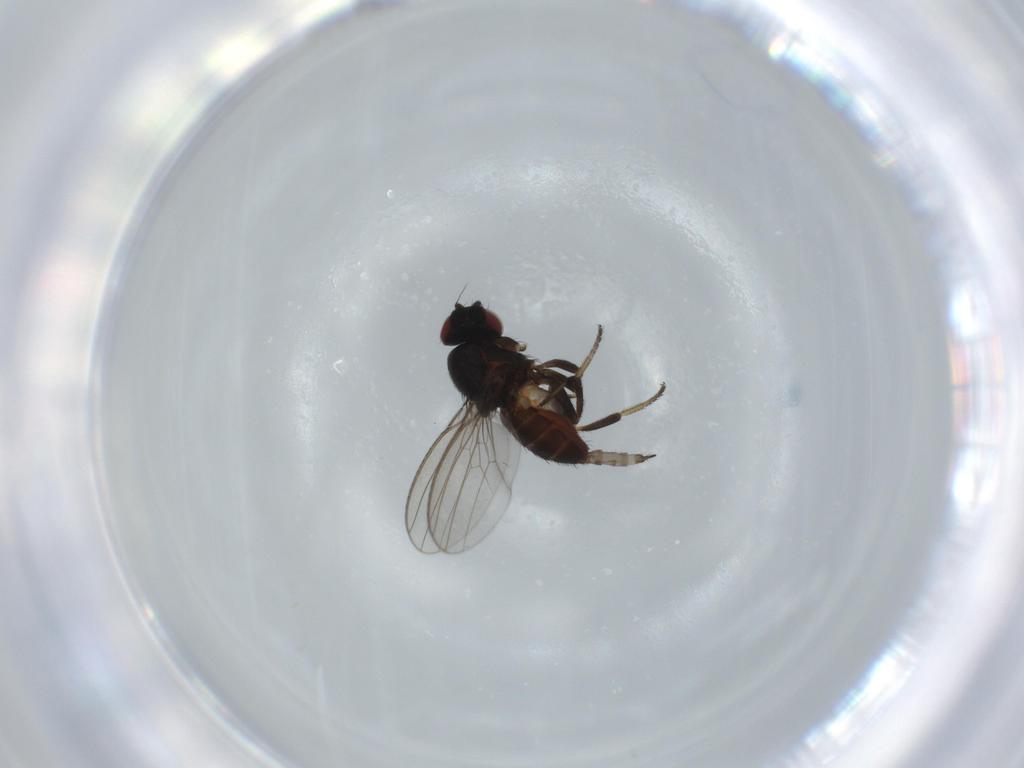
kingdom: Animalia
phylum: Arthropoda
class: Insecta
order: Diptera
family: Milichiidae
